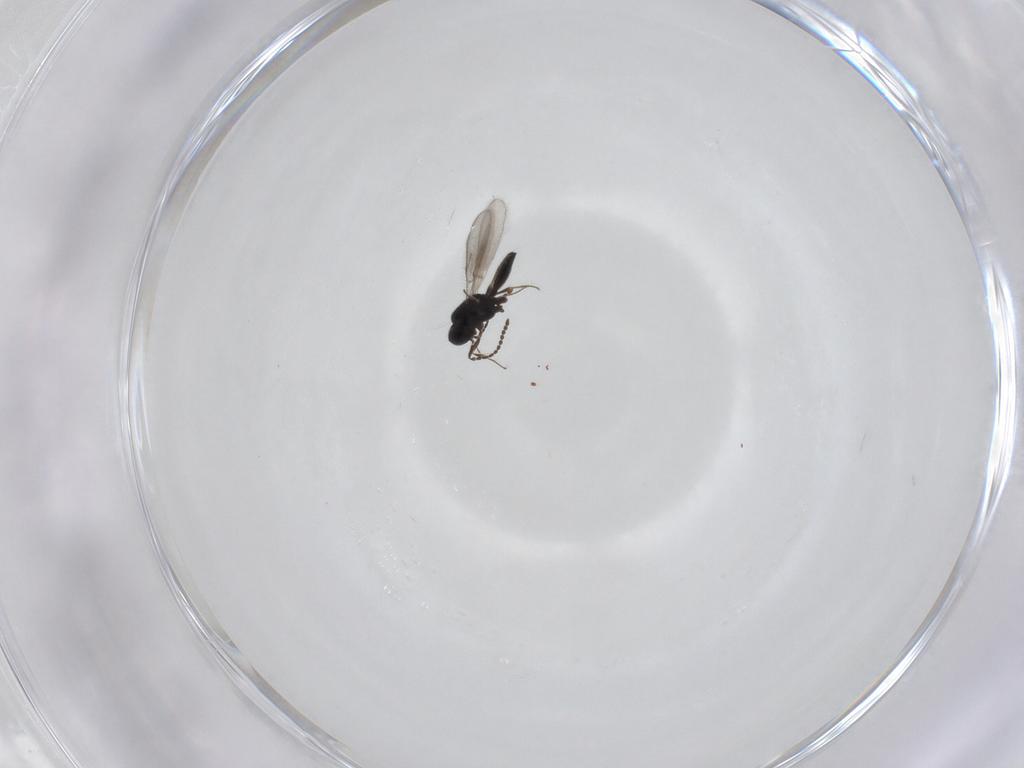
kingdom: Animalia
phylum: Arthropoda
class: Insecta
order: Hymenoptera
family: Scelionidae
